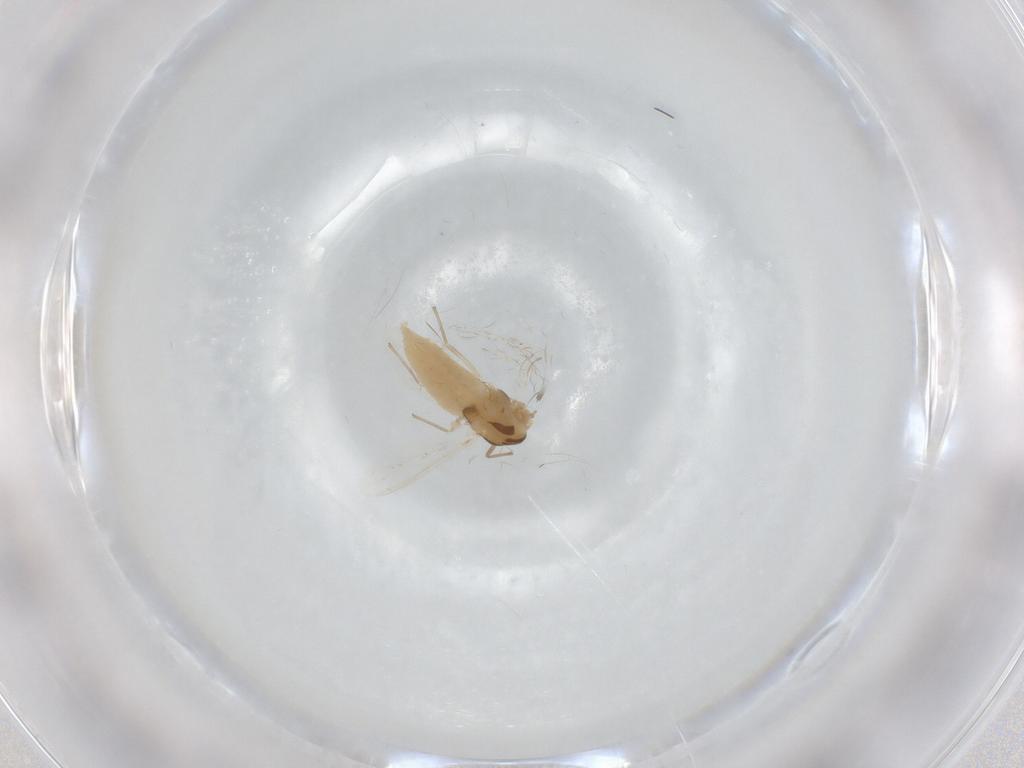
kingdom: Animalia
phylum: Arthropoda
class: Insecta
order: Diptera
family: Chironomidae
